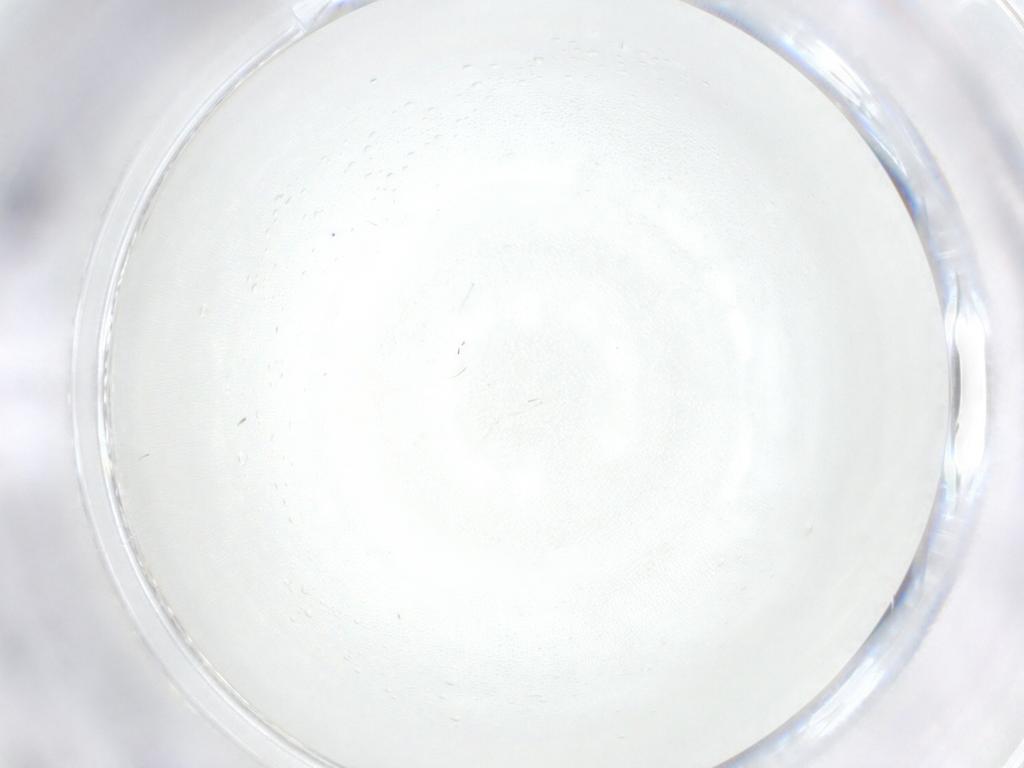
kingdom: Animalia
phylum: Arthropoda
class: Insecta
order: Diptera
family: Cecidomyiidae
